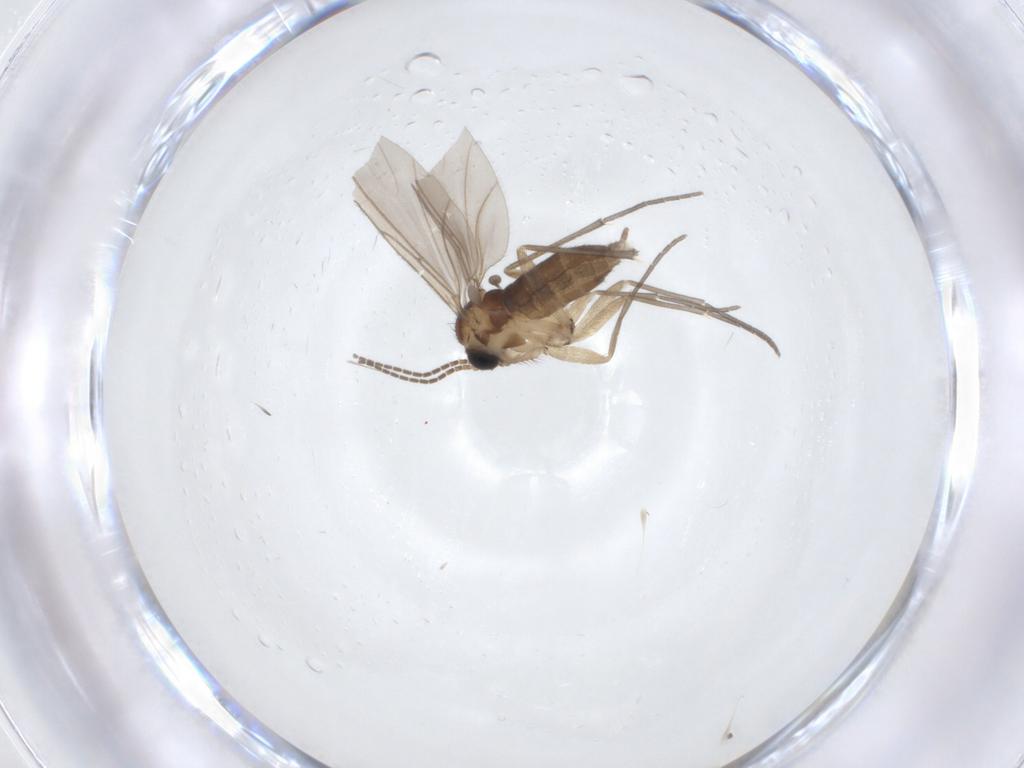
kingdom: Animalia
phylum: Arthropoda
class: Insecta
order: Diptera
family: Sciaridae
